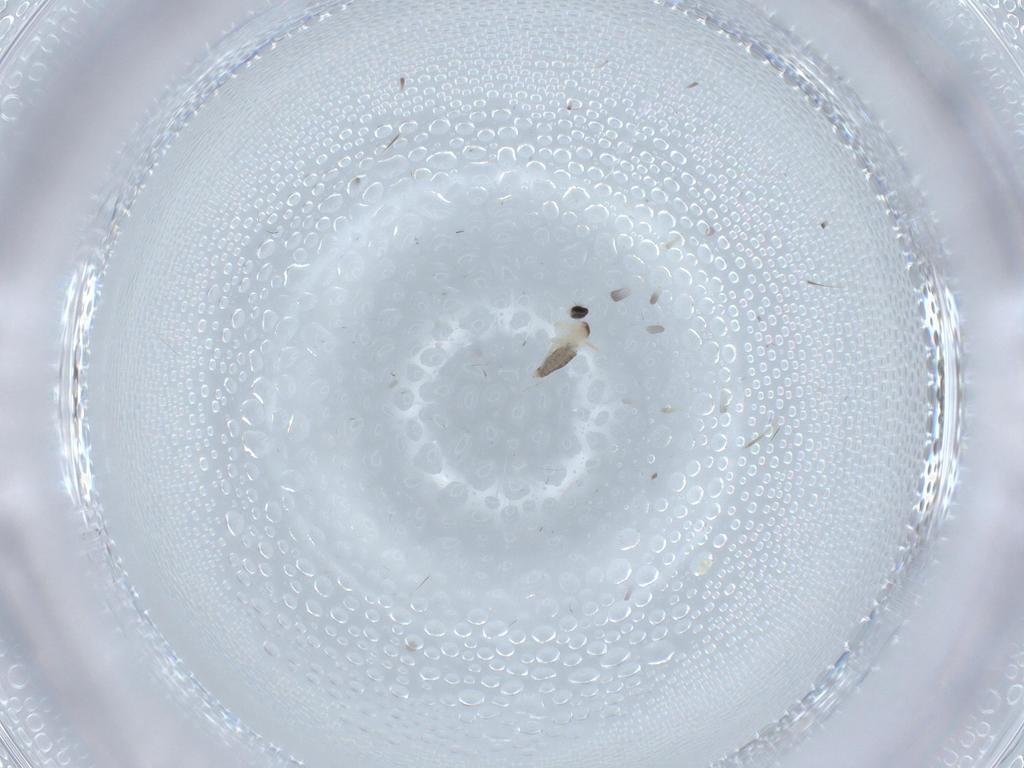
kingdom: Animalia
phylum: Arthropoda
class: Insecta
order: Diptera
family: Cecidomyiidae
